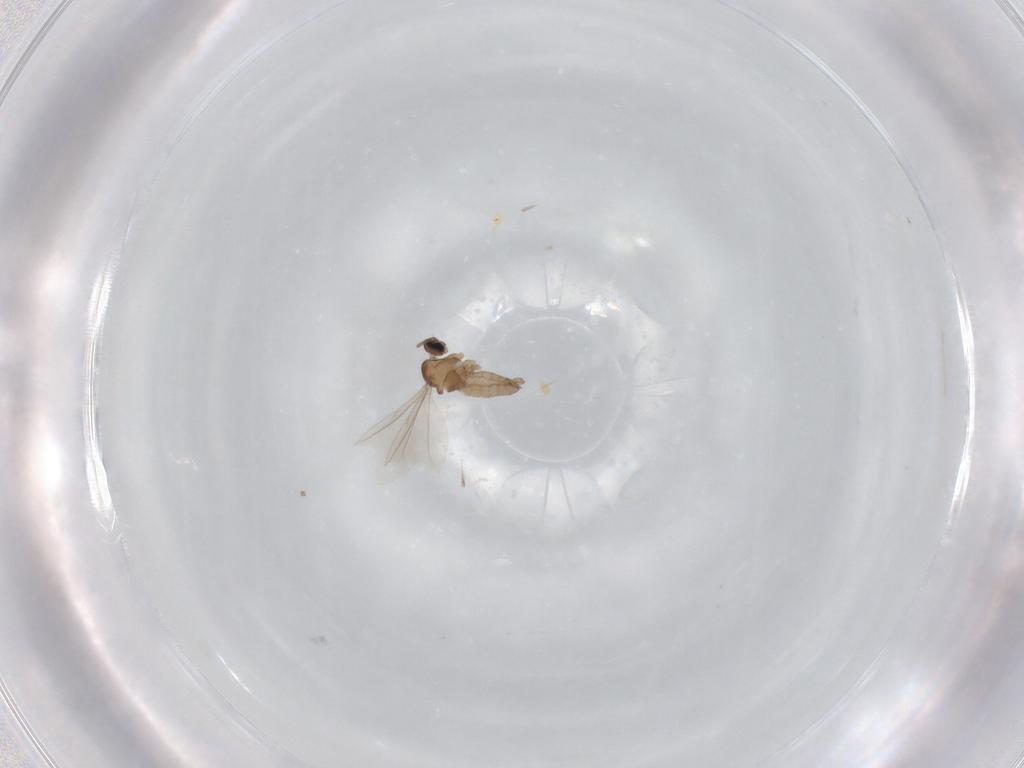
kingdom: Animalia
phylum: Arthropoda
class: Insecta
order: Diptera
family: Cecidomyiidae
